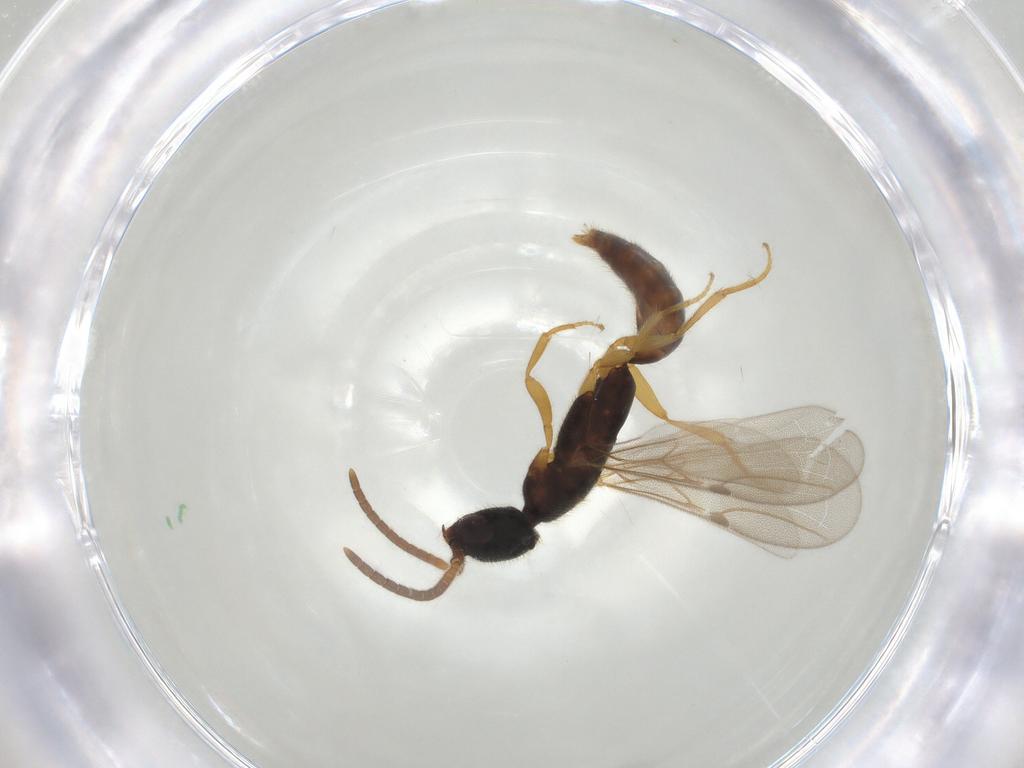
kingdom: Animalia
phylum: Arthropoda
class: Insecta
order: Hymenoptera
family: Bethylidae
